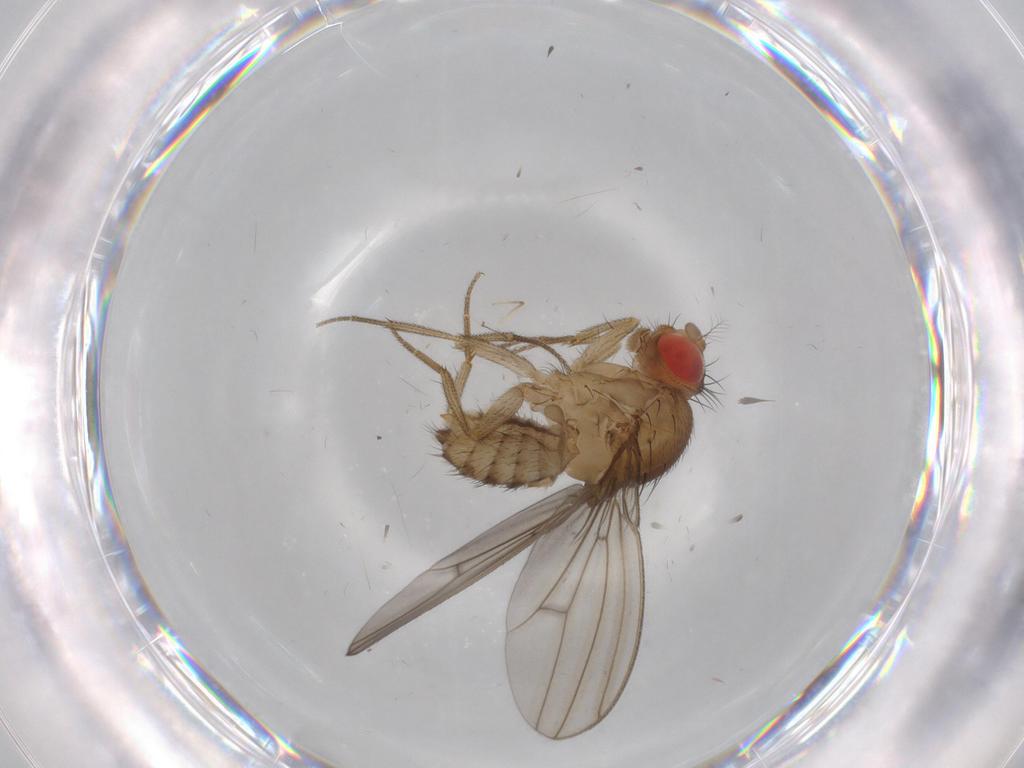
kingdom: Animalia
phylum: Arthropoda
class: Insecta
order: Diptera
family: Drosophilidae
